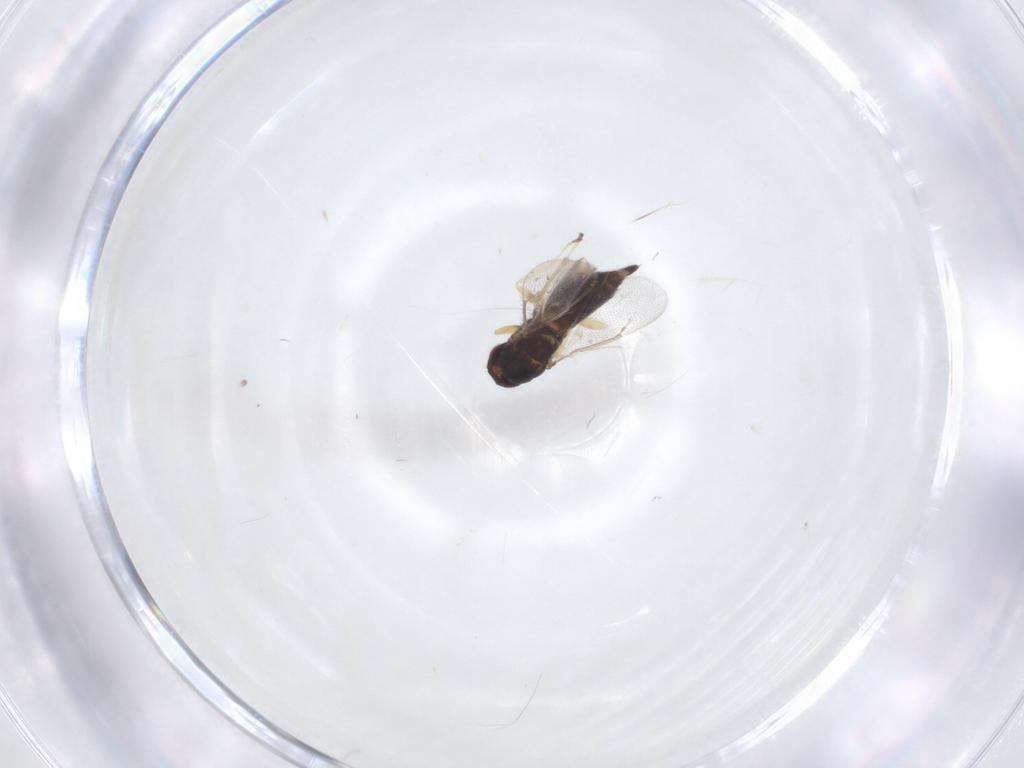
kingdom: Animalia
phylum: Arthropoda
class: Insecta
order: Hymenoptera
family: Eulophidae
